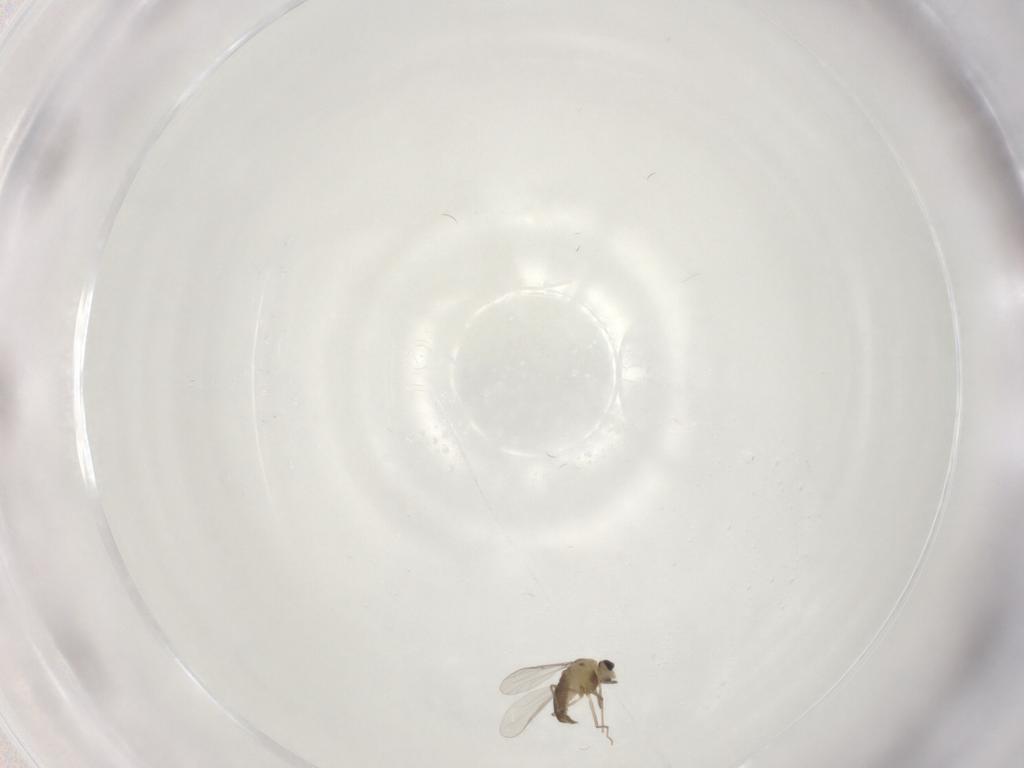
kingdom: Animalia
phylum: Arthropoda
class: Insecta
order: Diptera
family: Chironomidae
